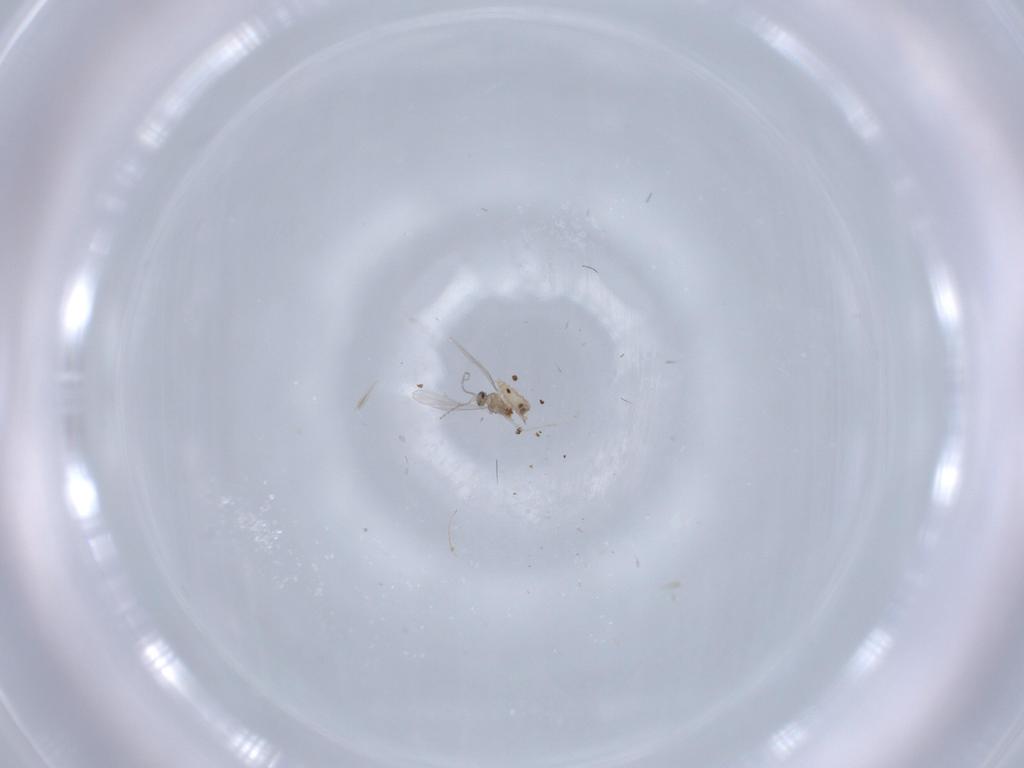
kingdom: Animalia
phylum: Arthropoda
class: Insecta
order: Diptera
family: Cecidomyiidae
